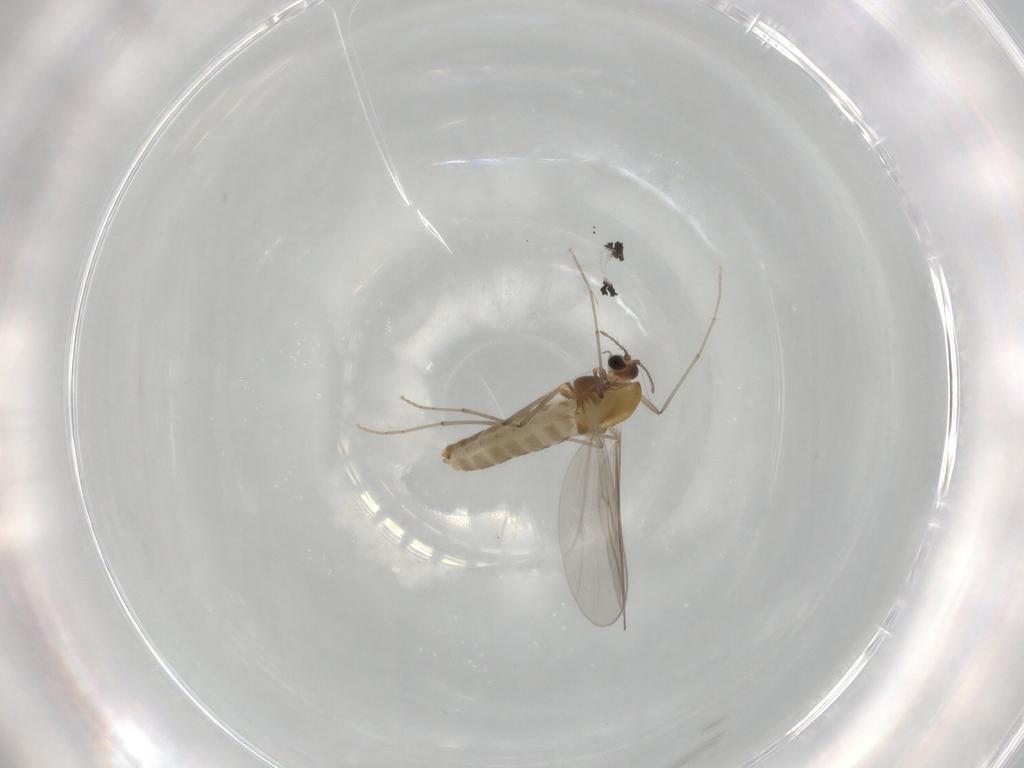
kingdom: Animalia
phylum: Arthropoda
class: Insecta
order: Diptera
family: Chironomidae
